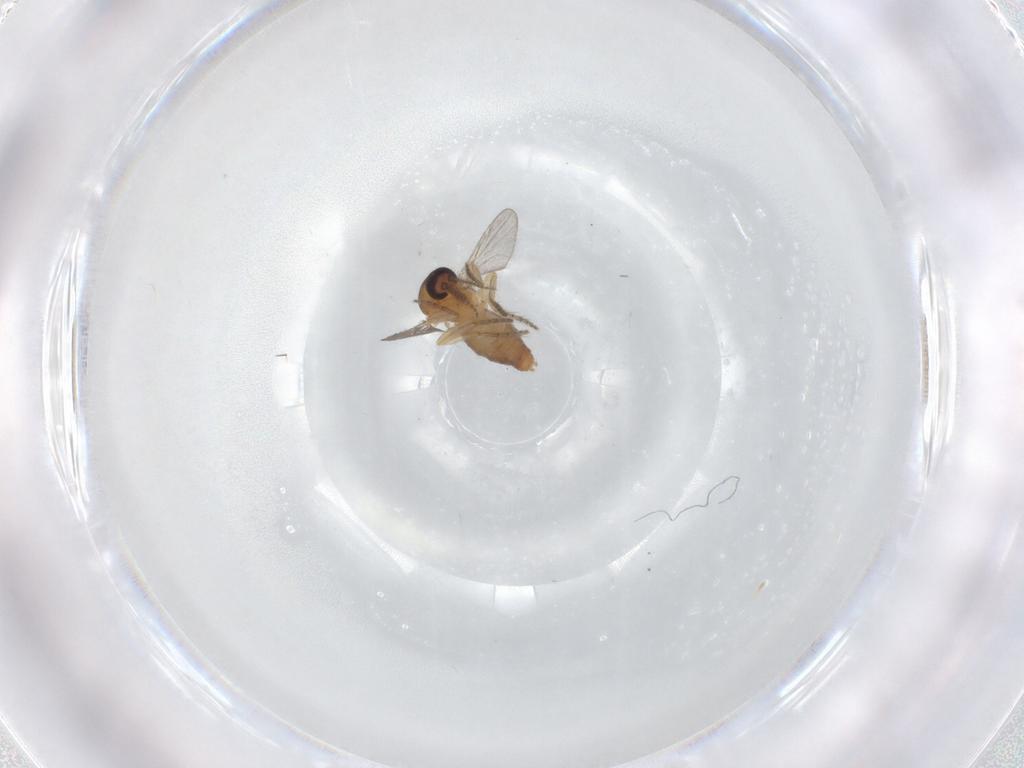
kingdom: Animalia
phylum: Arthropoda
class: Insecta
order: Diptera
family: Ceratopogonidae
